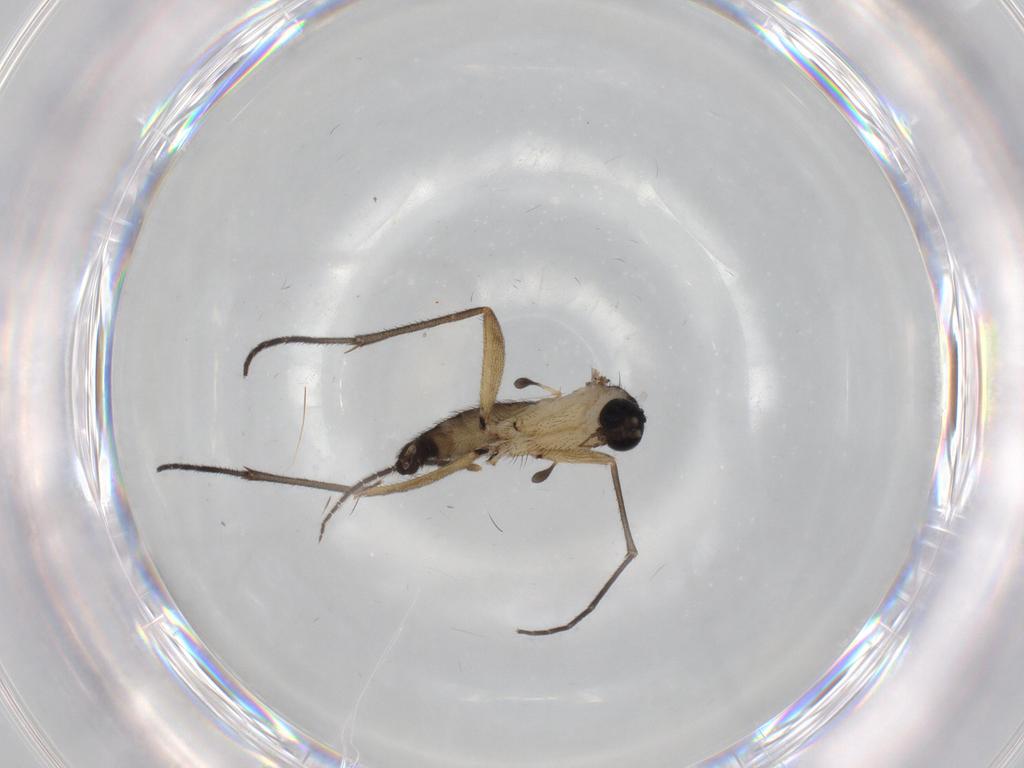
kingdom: Animalia
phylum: Arthropoda
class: Insecta
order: Diptera
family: Sciaridae
